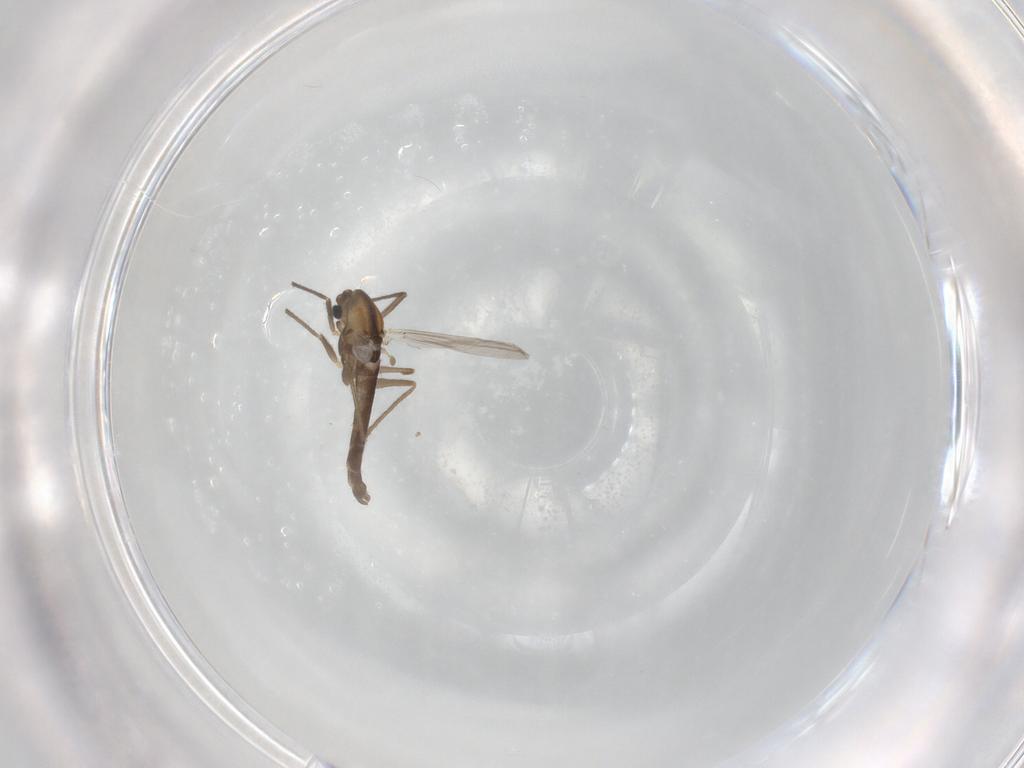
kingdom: Animalia
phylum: Arthropoda
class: Insecta
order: Diptera
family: Chironomidae
